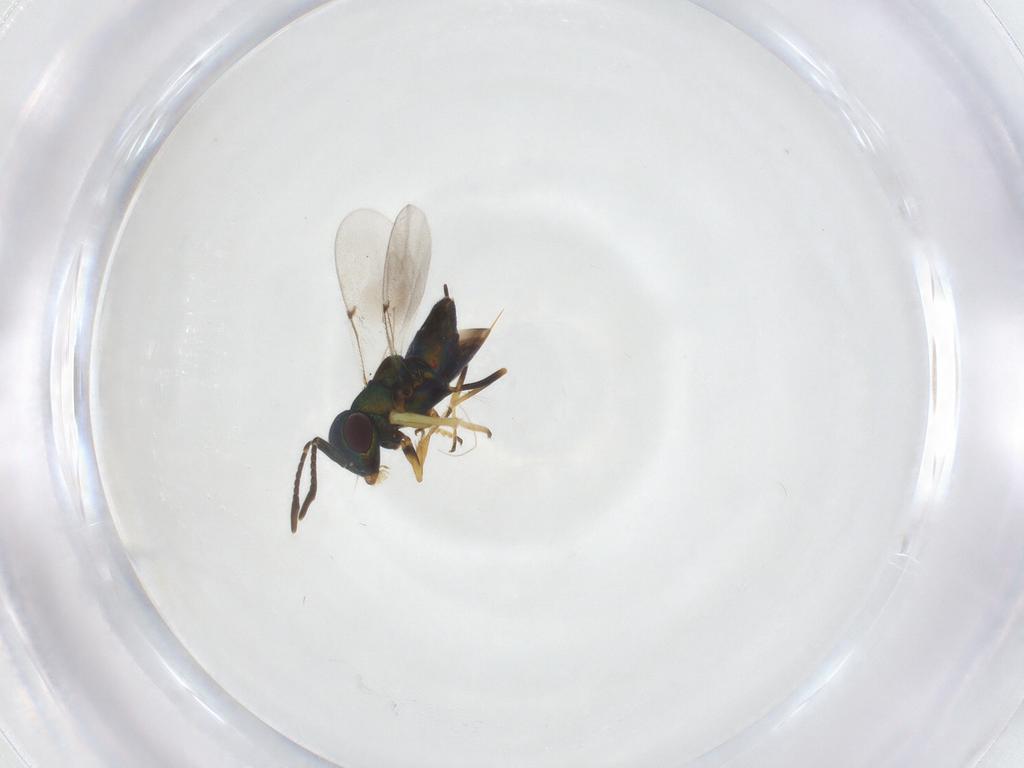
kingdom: Animalia
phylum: Arthropoda
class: Insecta
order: Hymenoptera
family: Encyrtidae
